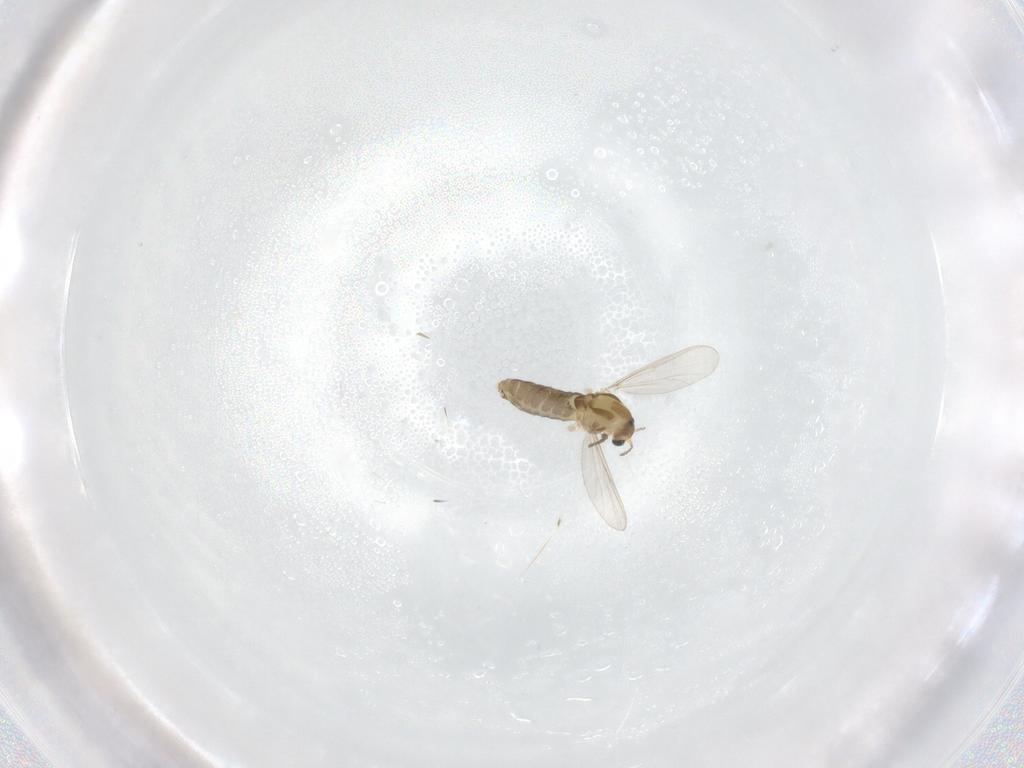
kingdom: Animalia
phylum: Arthropoda
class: Insecta
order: Diptera
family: Chironomidae
